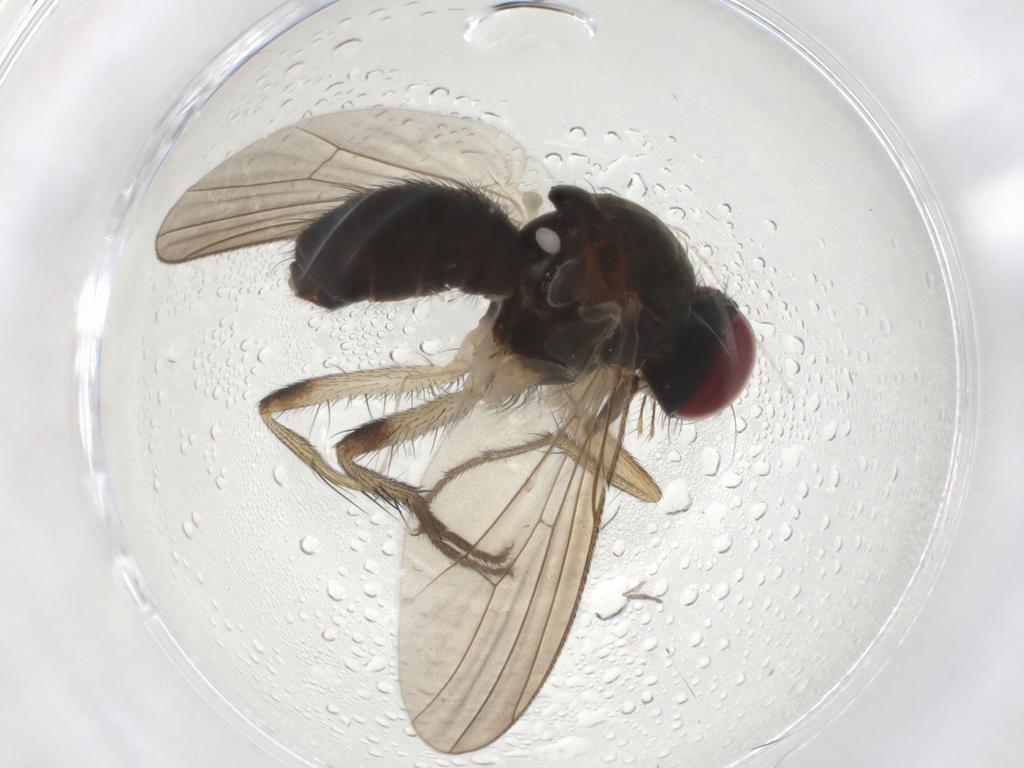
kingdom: Animalia
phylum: Arthropoda
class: Insecta
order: Diptera
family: Muscidae
